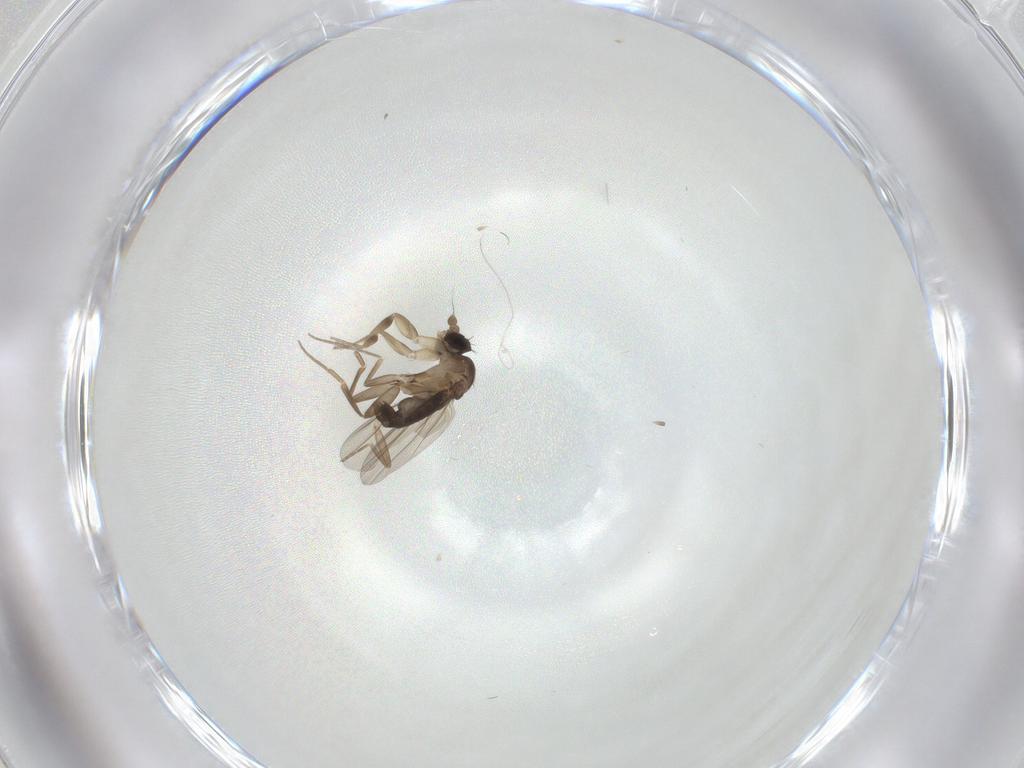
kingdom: Animalia
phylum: Arthropoda
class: Insecta
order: Diptera
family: Phoridae
